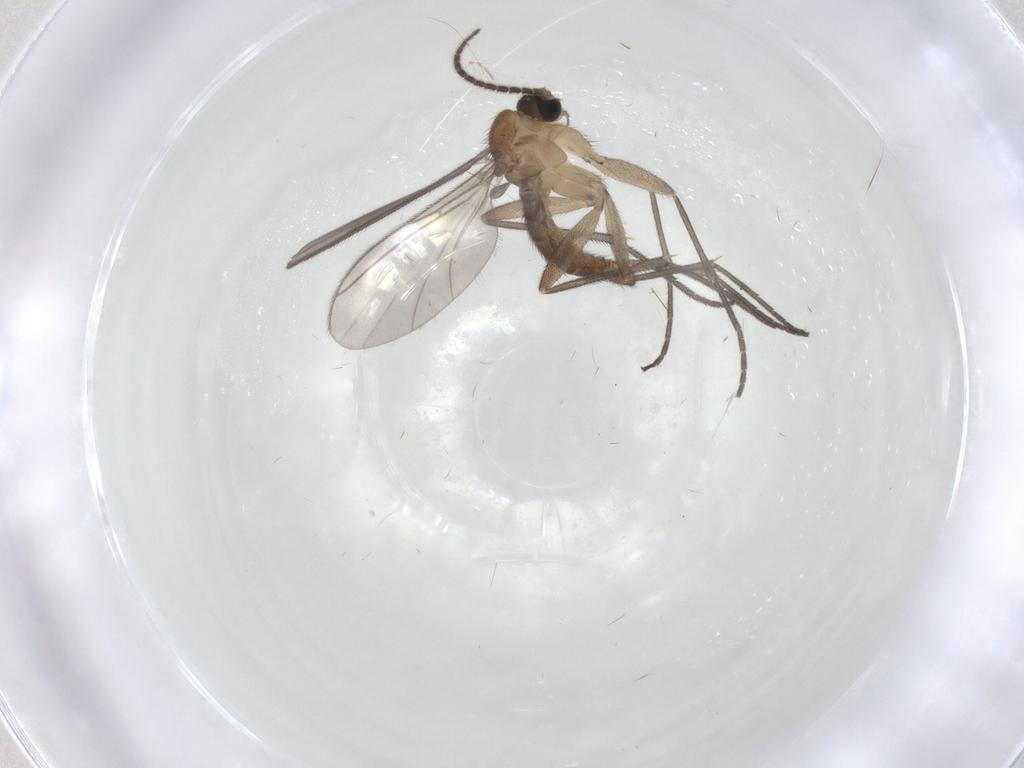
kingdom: Animalia
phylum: Arthropoda
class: Insecta
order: Diptera
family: Sciaridae
